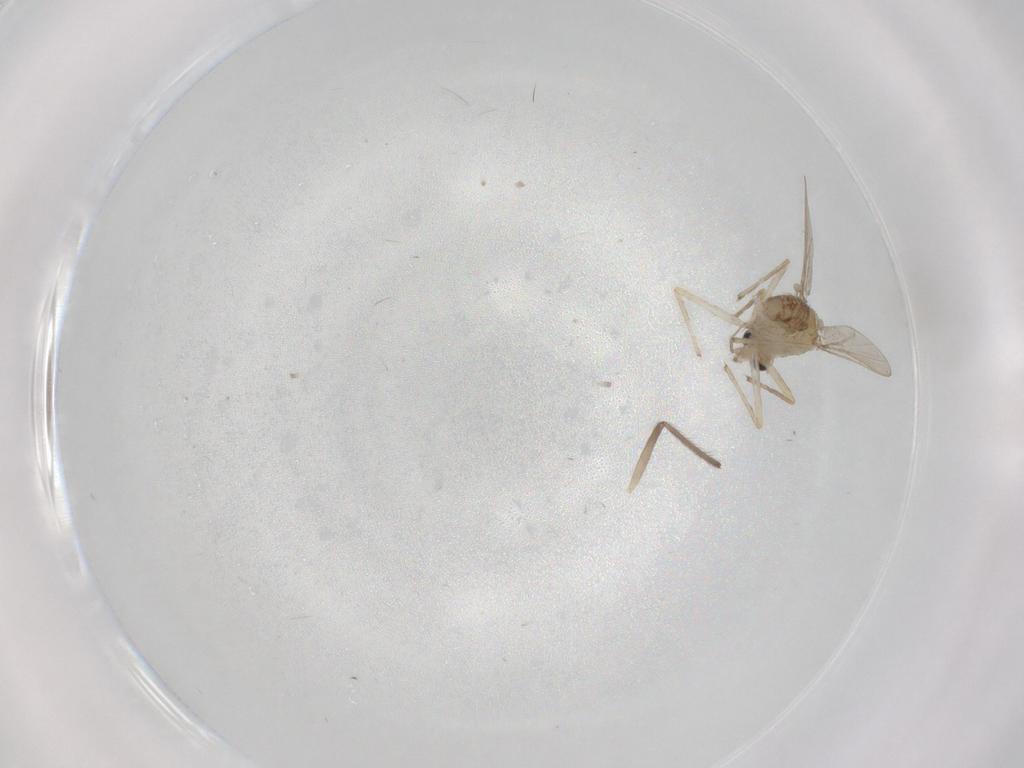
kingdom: Animalia
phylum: Arthropoda
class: Insecta
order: Diptera
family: Chironomidae
